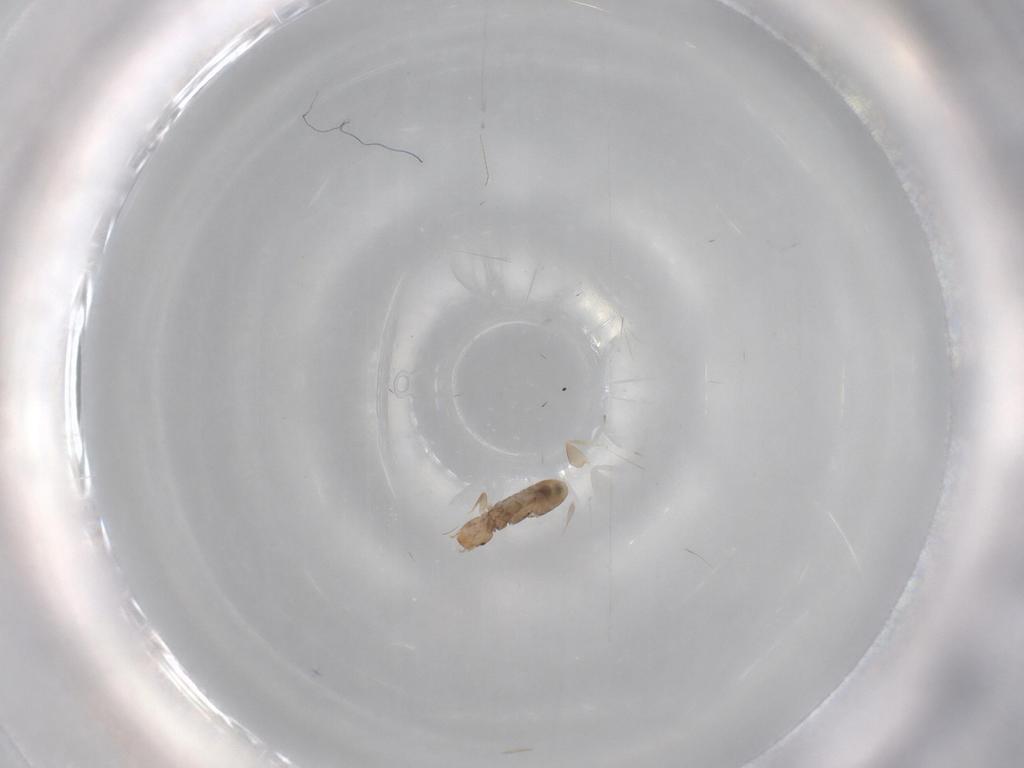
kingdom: Animalia
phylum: Arthropoda
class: Insecta
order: Psocodea
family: Liposcelididae
